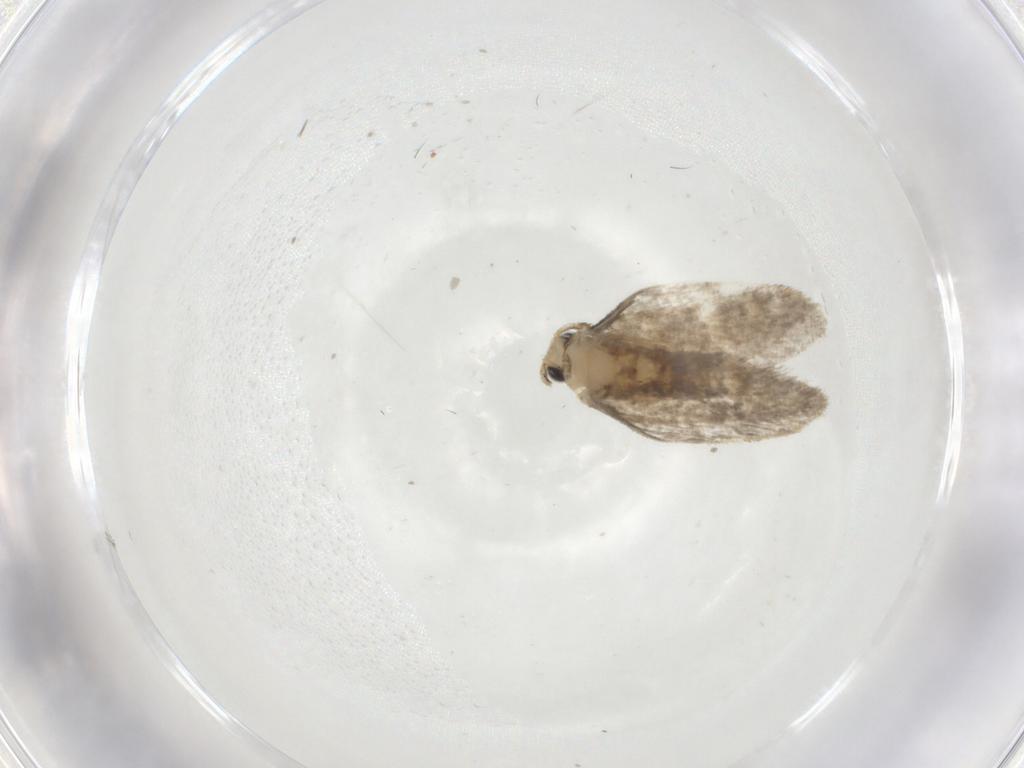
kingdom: Animalia
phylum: Arthropoda
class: Insecta
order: Lepidoptera
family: Psychidae
